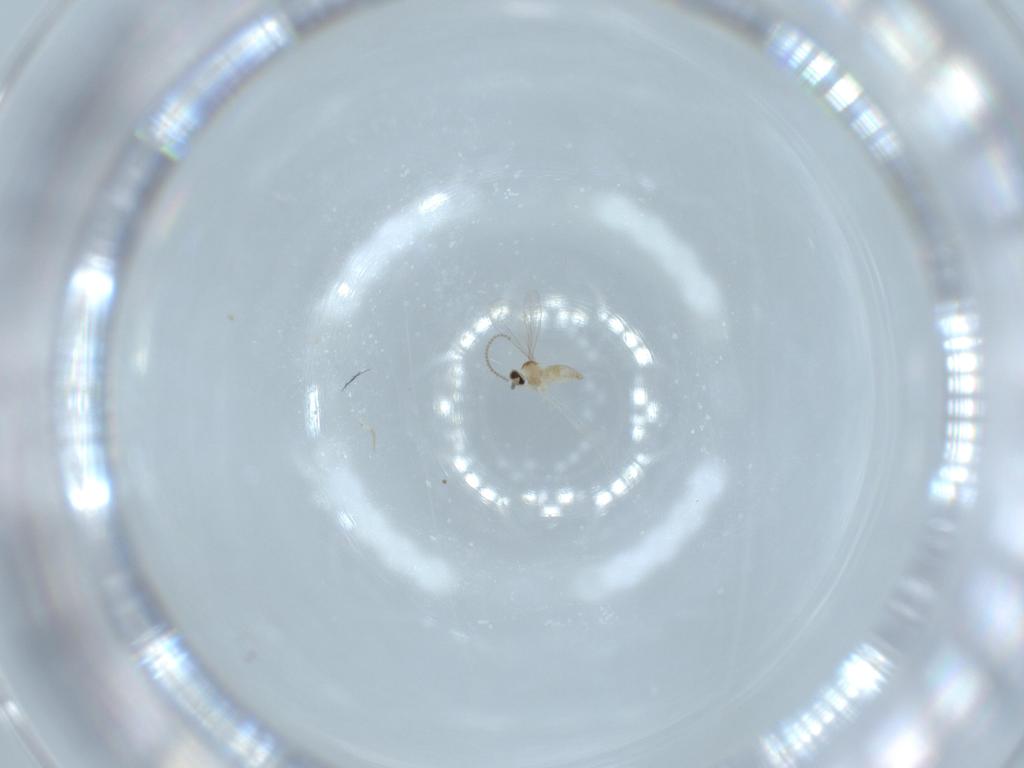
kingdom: Animalia
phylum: Arthropoda
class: Insecta
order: Diptera
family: Cecidomyiidae
